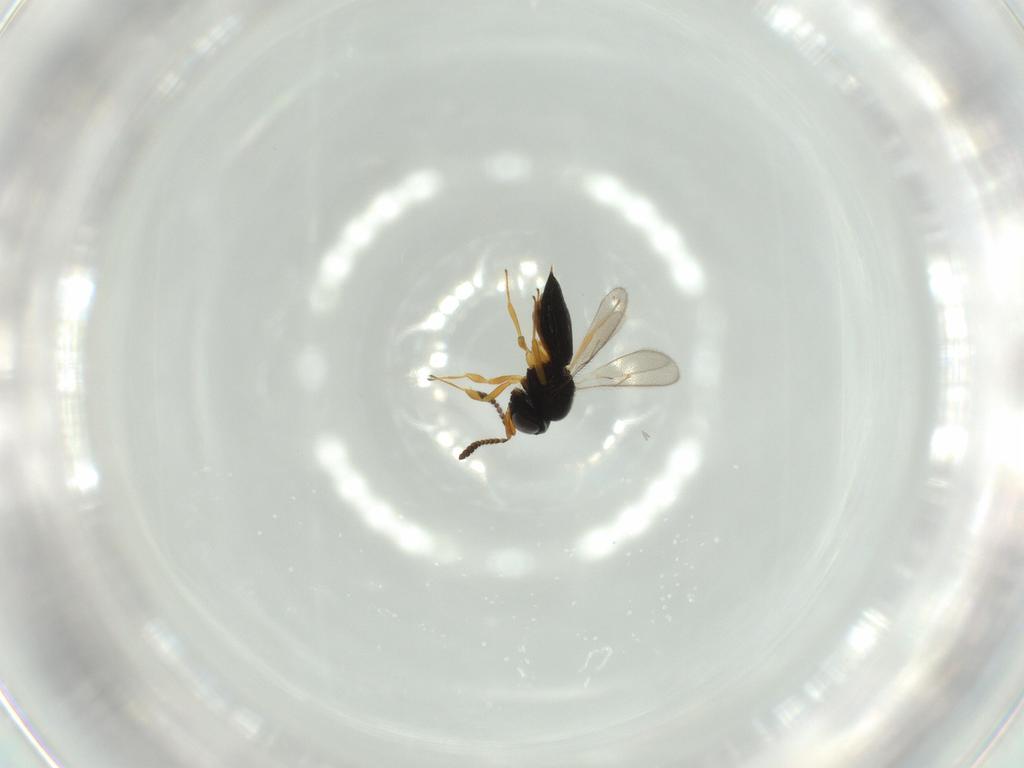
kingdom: Animalia
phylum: Arthropoda
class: Insecta
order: Hymenoptera
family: Scelionidae
